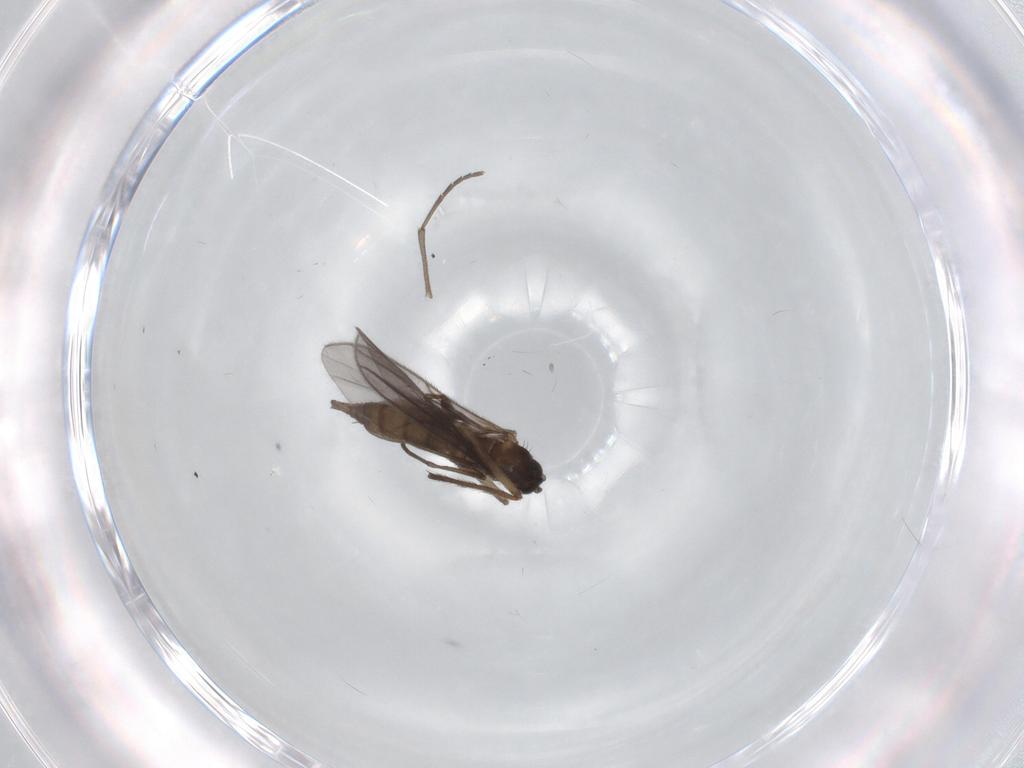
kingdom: Animalia
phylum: Arthropoda
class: Insecta
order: Diptera
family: Chironomidae
